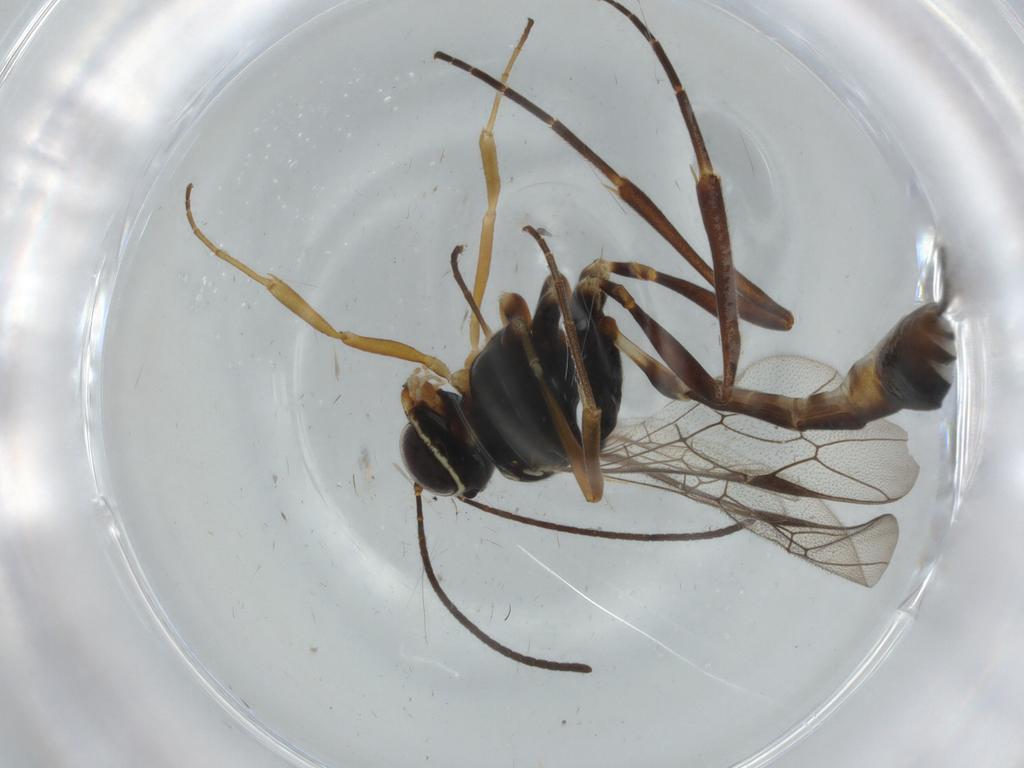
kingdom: Animalia
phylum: Arthropoda
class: Insecta
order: Hymenoptera
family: Bethylidae
